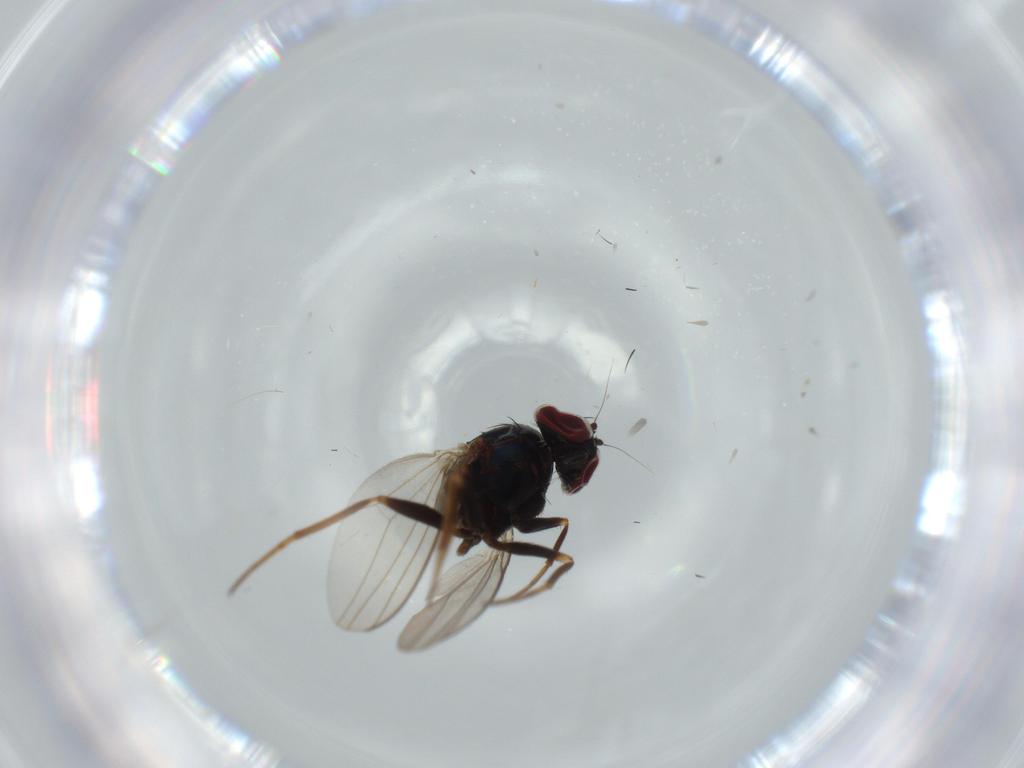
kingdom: Animalia
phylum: Arthropoda
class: Insecta
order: Diptera
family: Dolichopodidae
